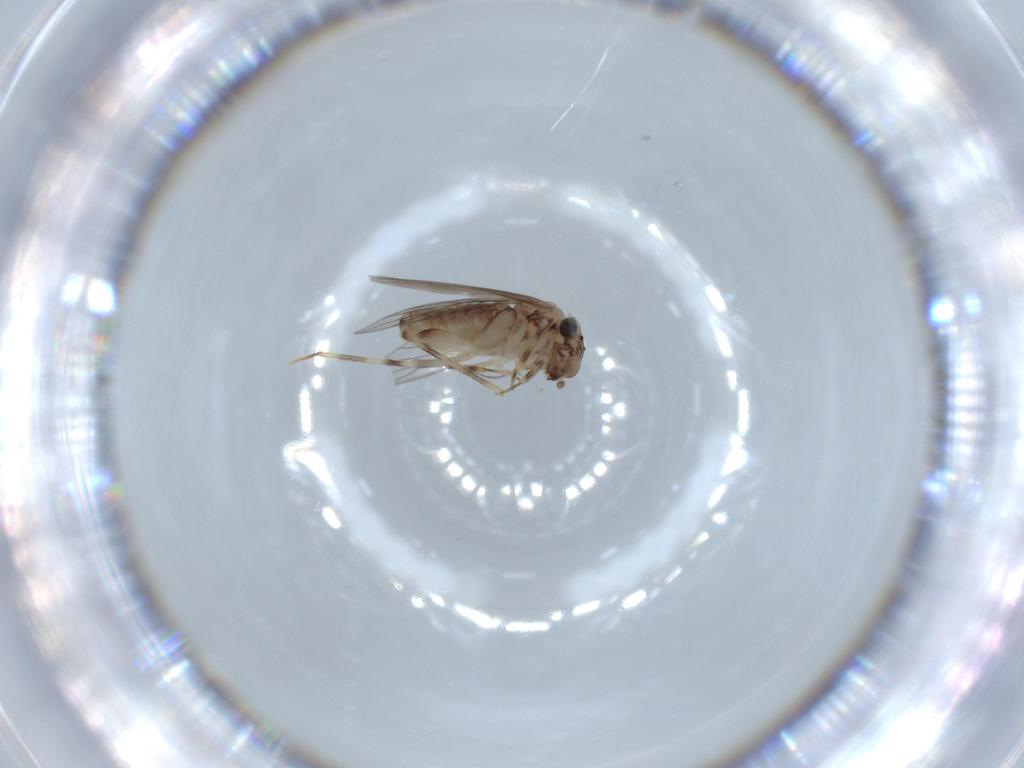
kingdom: Animalia
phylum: Arthropoda
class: Insecta
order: Psocodea
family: Lepidopsocidae
